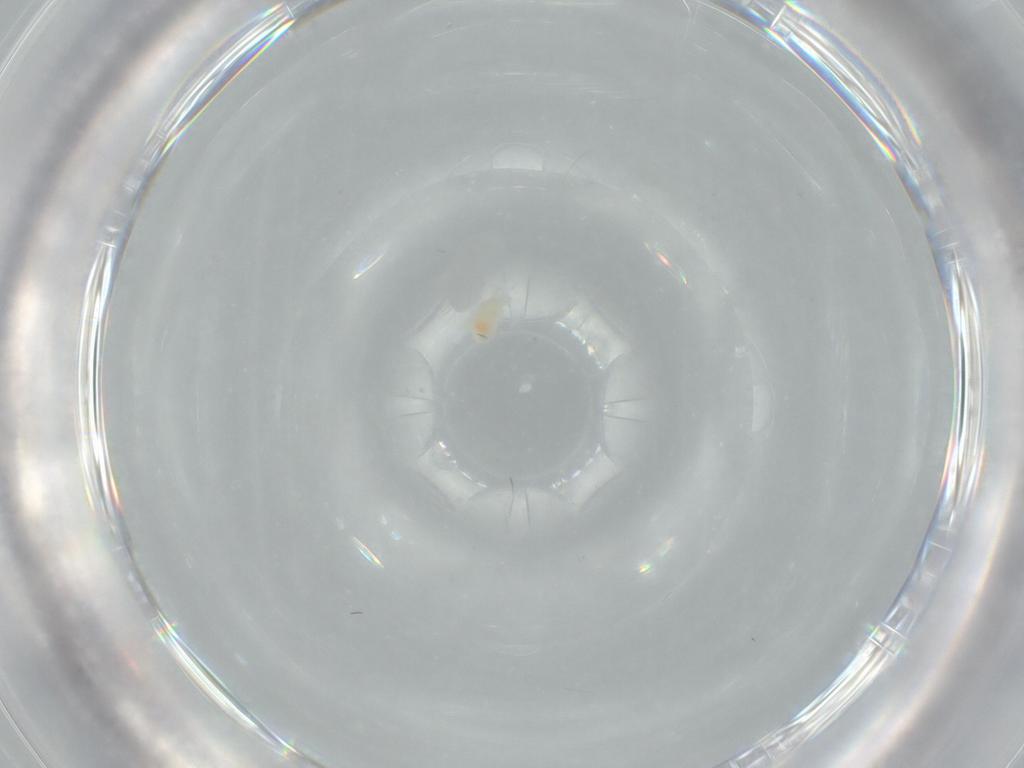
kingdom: Animalia
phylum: Arthropoda
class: Arachnida
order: Trombidiformes
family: Eupodidae
